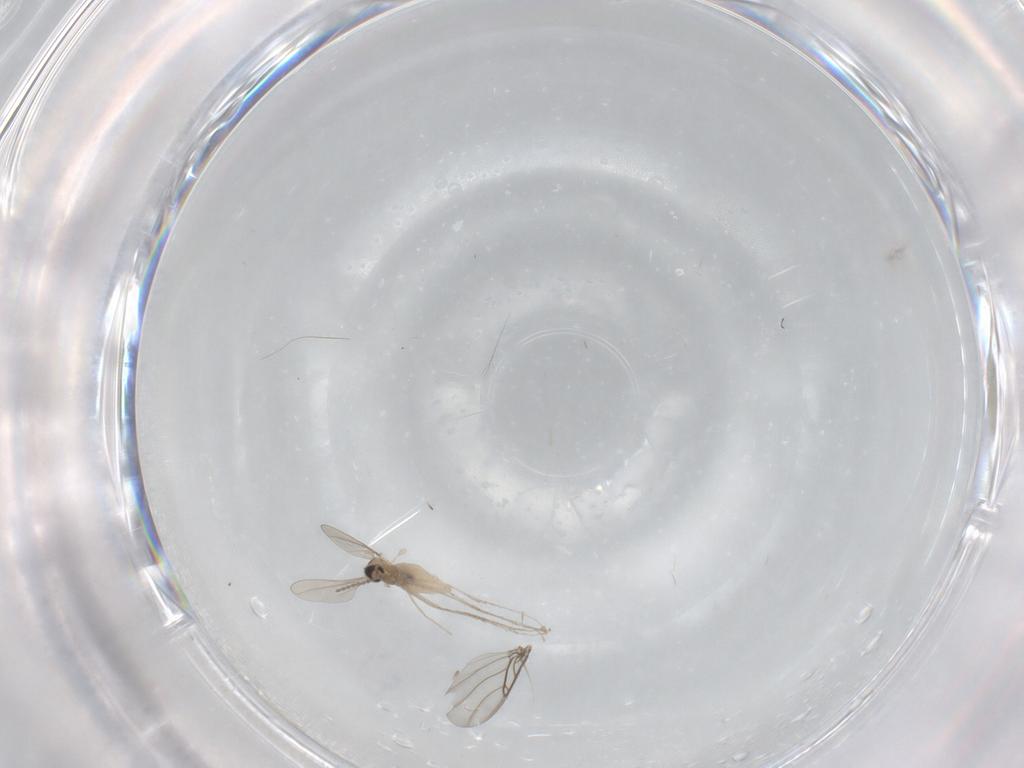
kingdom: Animalia
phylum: Arthropoda
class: Insecta
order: Diptera
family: Cecidomyiidae
